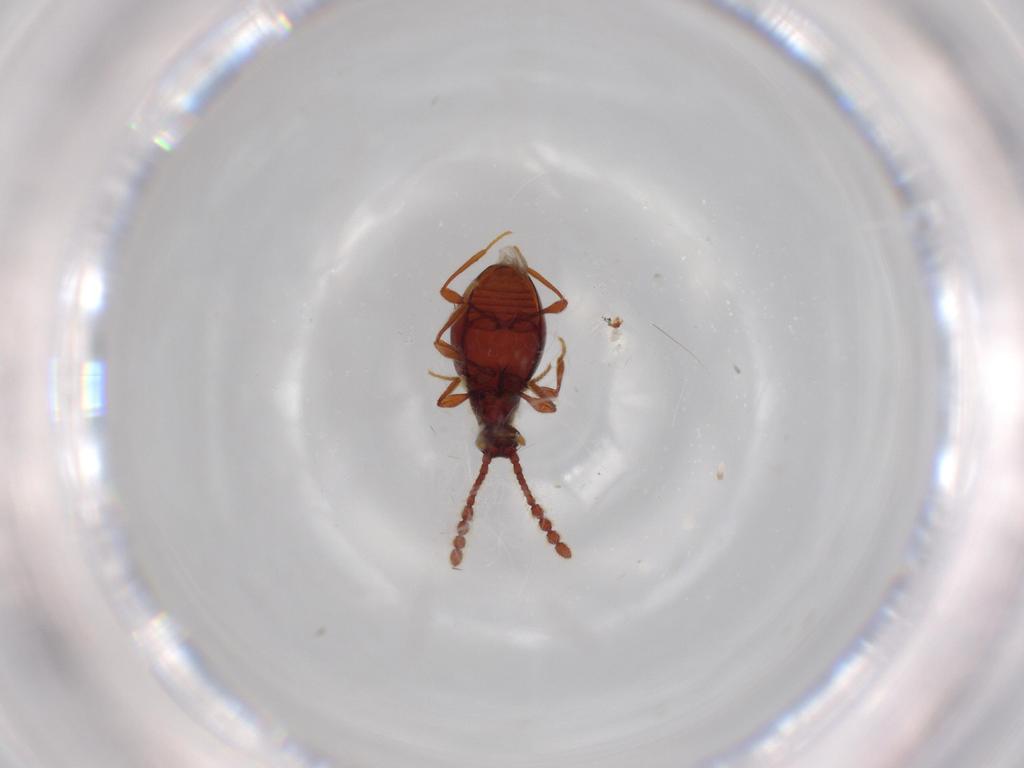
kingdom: Animalia
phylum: Arthropoda
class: Insecta
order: Coleoptera
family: Staphylinidae
